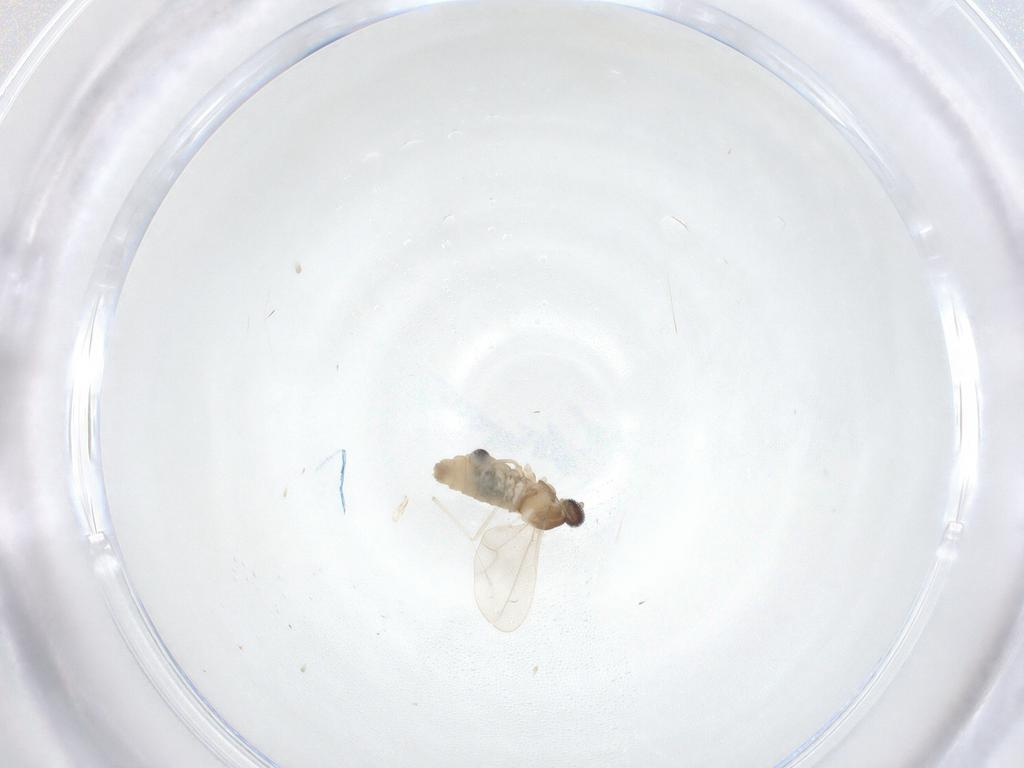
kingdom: Animalia
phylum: Arthropoda
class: Insecta
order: Diptera
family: Cecidomyiidae
